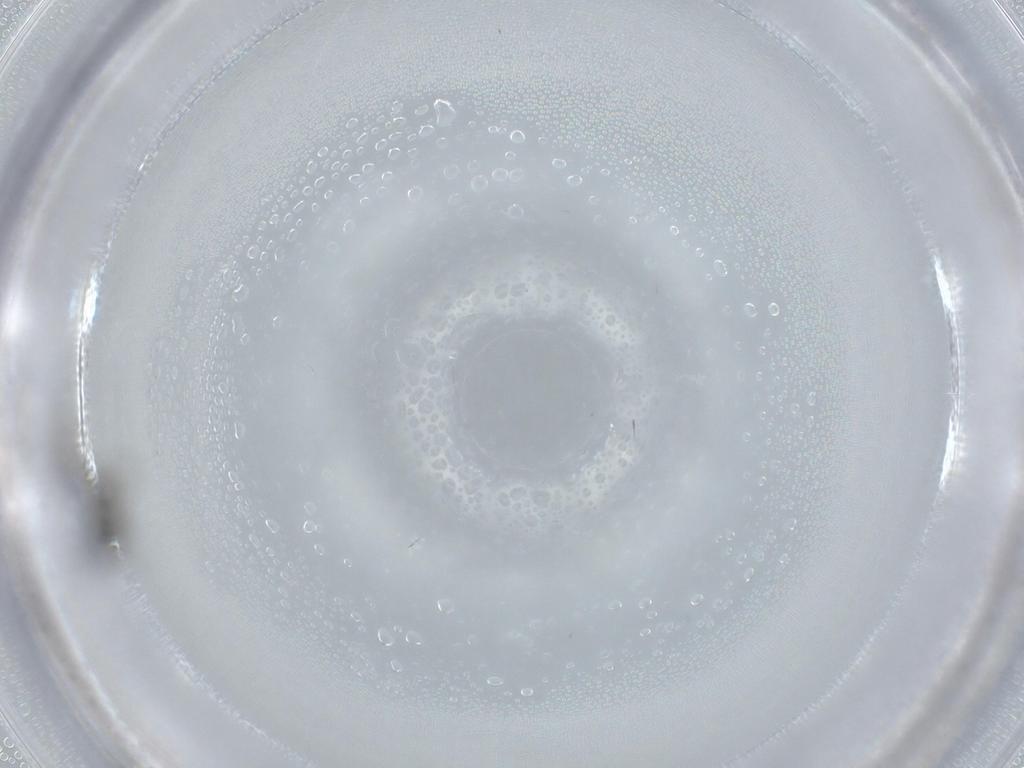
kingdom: Animalia
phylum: Arthropoda
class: Insecta
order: Diptera
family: Sciaridae
